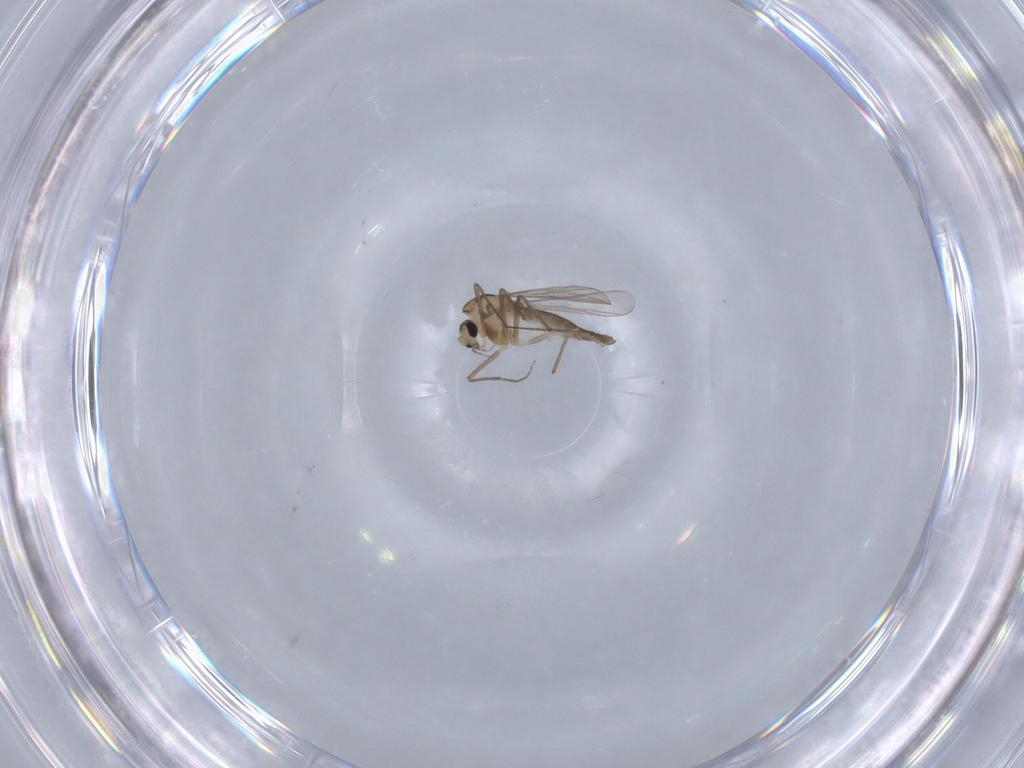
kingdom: Animalia
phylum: Arthropoda
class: Insecta
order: Diptera
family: Chironomidae
